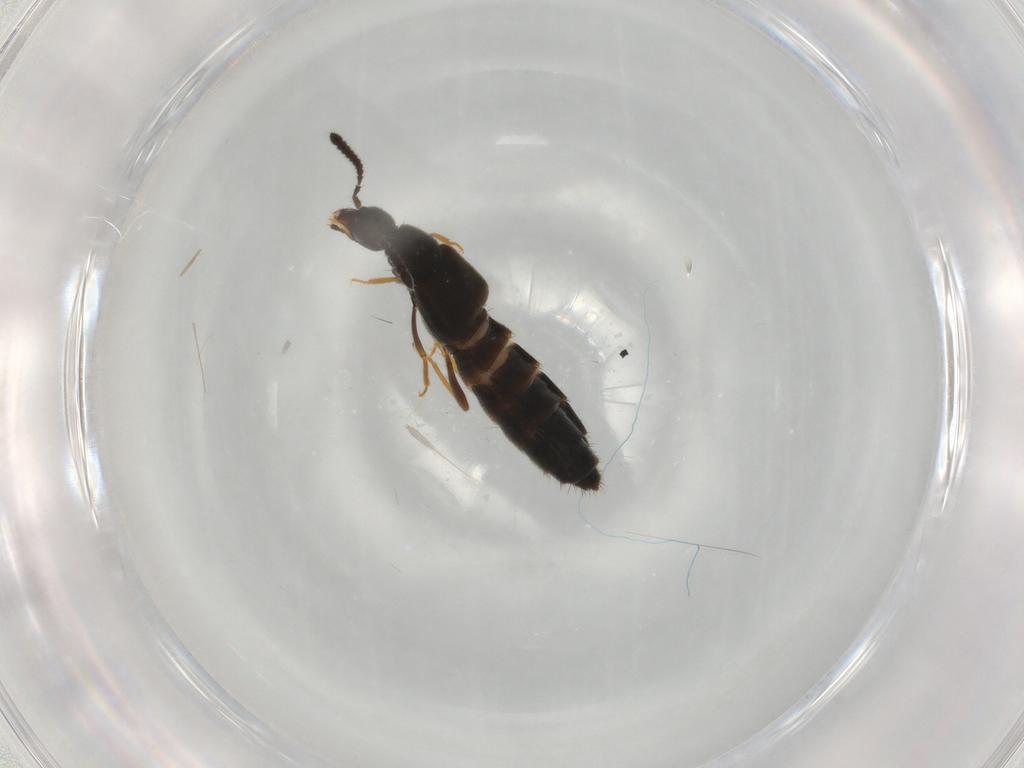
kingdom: Animalia
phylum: Arthropoda
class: Insecta
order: Coleoptera
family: Staphylinidae
